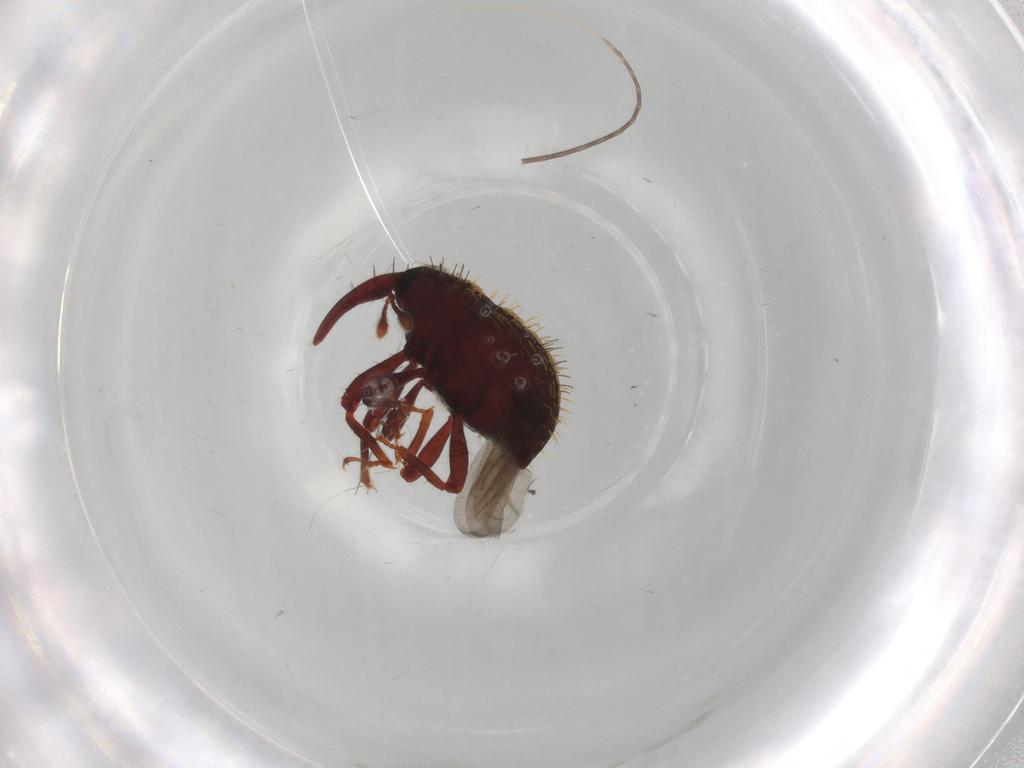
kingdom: Animalia
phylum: Arthropoda
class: Insecta
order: Coleoptera
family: Curculionidae
